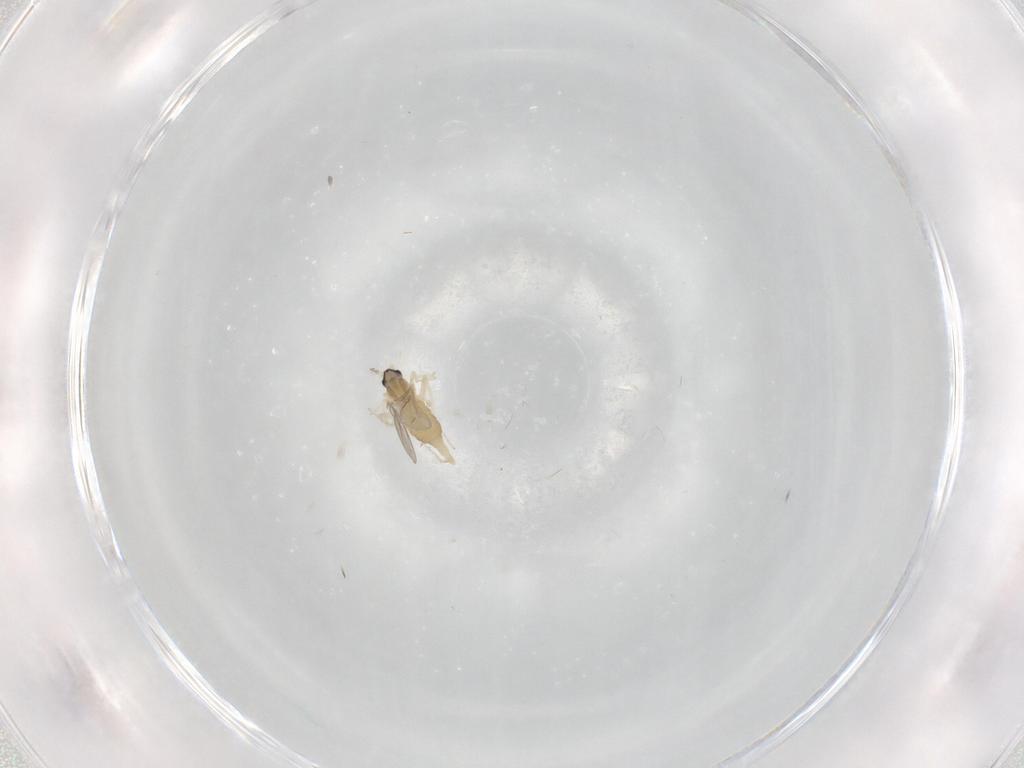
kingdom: Animalia
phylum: Arthropoda
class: Insecta
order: Diptera
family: Cecidomyiidae
